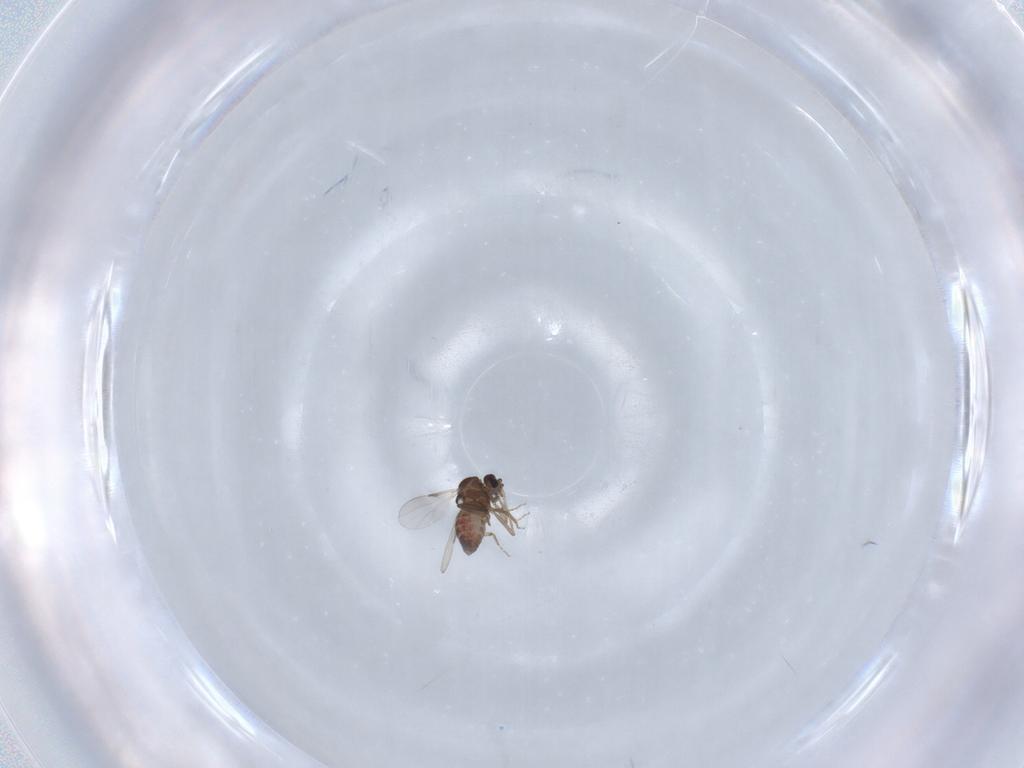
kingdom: Animalia
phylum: Arthropoda
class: Insecta
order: Diptera
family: Ceratopogonidae
